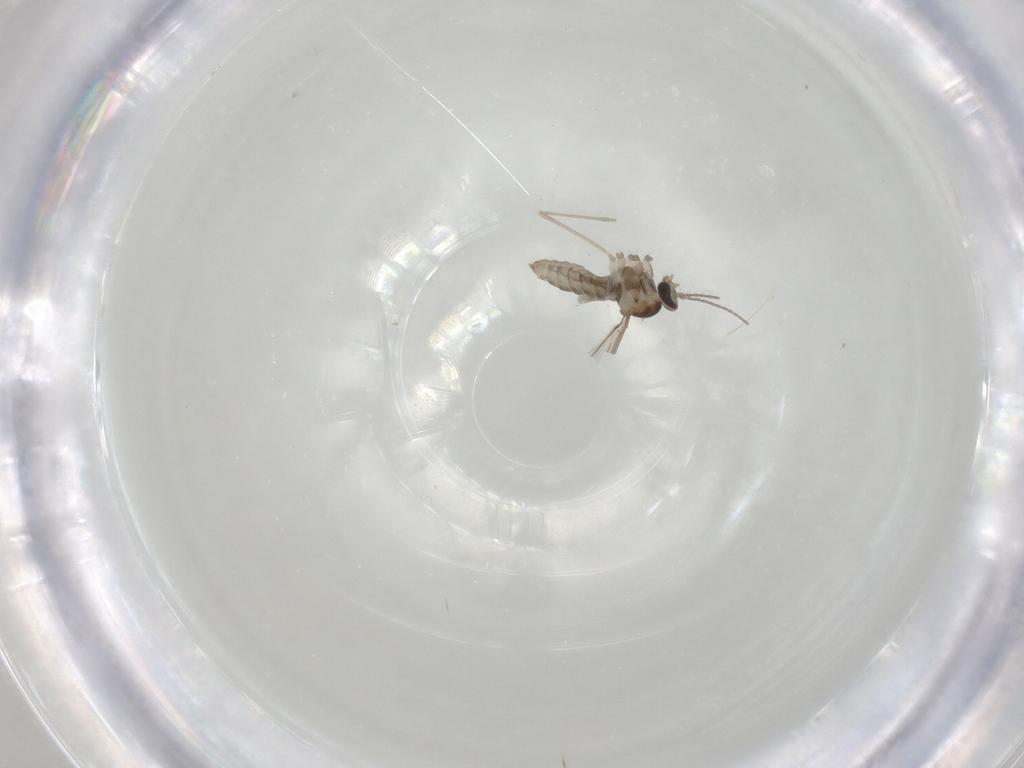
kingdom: Animalia
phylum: Arthropoda
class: Insecta
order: Diptera
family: Cecidomyiidae
